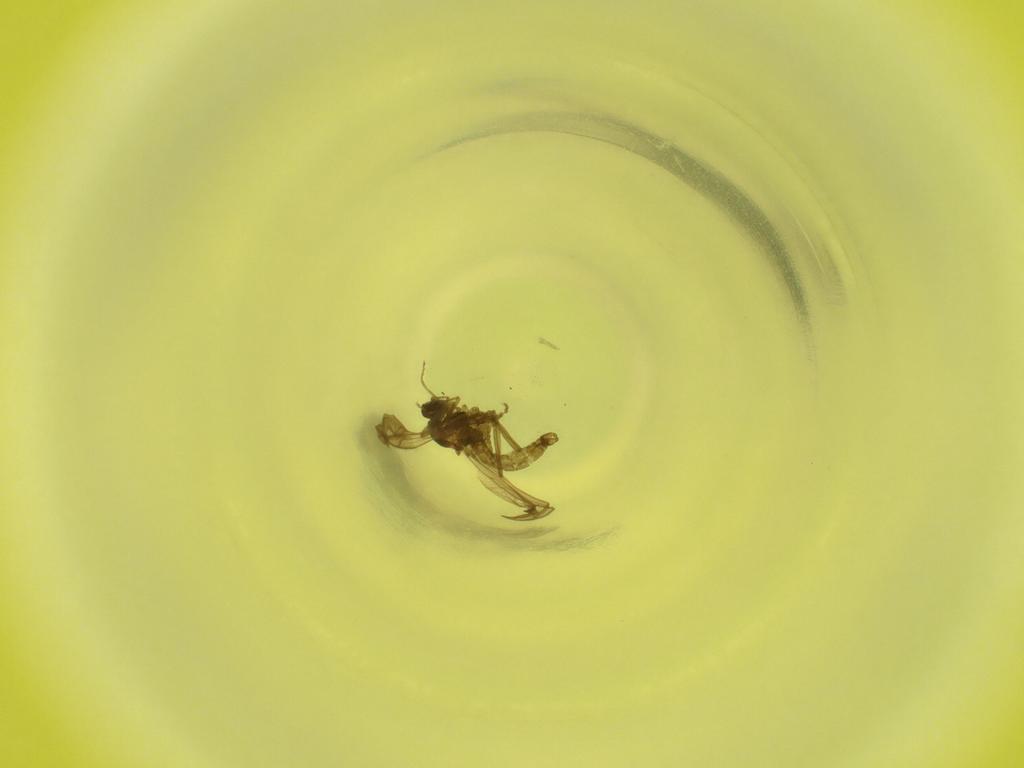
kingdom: Animalia
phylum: Arthropoda
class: Insecta
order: Diptera
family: Cecidomyiidae
